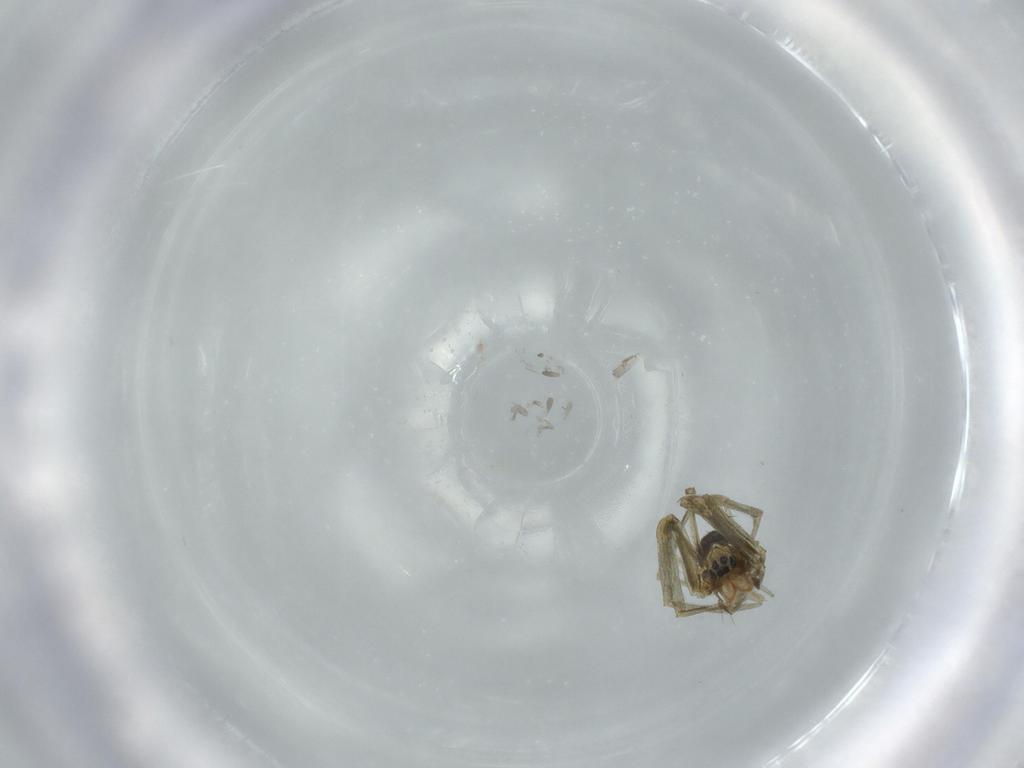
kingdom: Animalia
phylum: Arthropoda
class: Arachnida
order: Araneae
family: Linyphiidae
